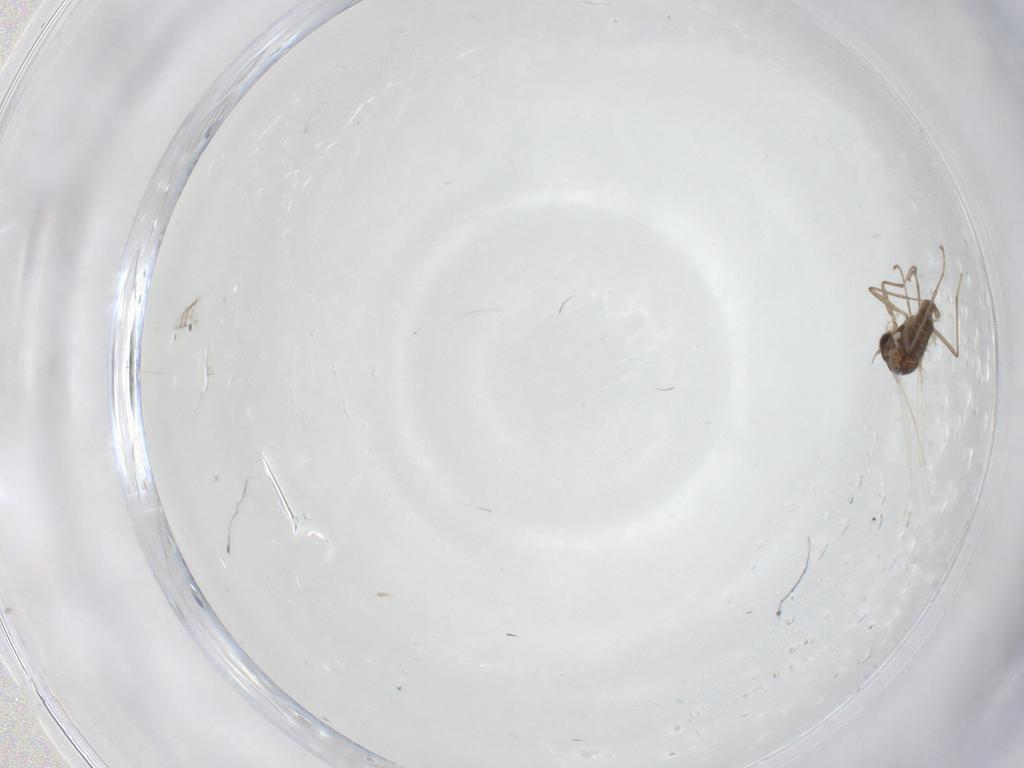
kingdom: Animalia
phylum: Arthropoda
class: Insecta
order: Diptera
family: Cecidomyiidae
